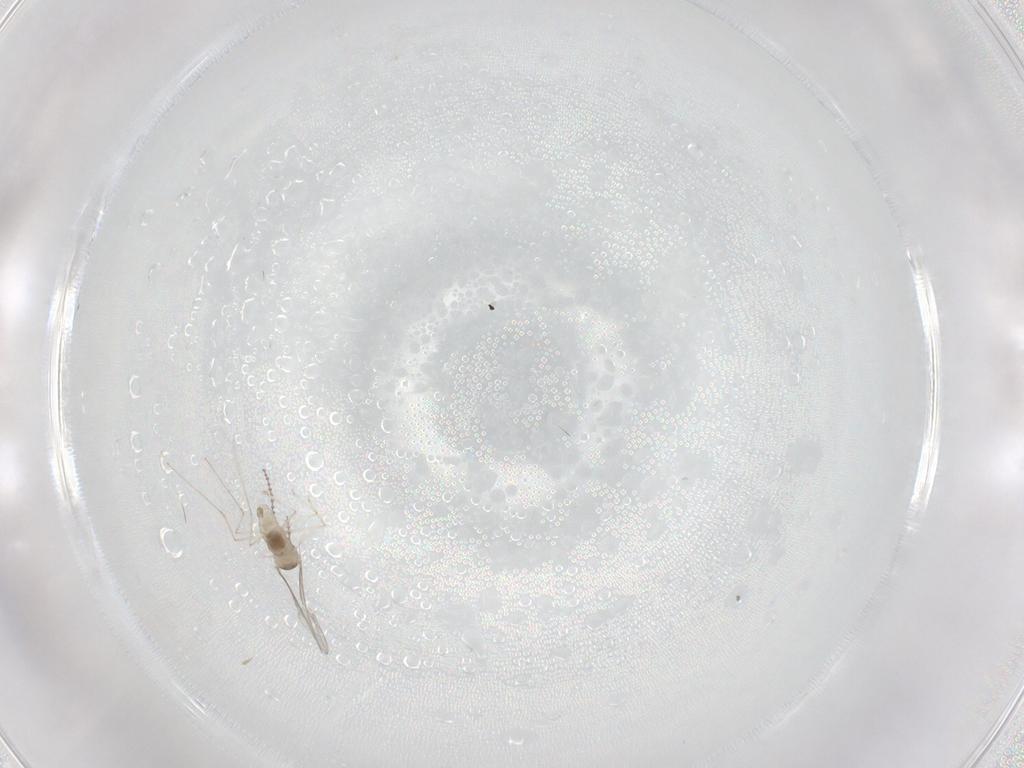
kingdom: Animalia
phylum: Arthropoda
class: Insecta
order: Diptera
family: Cecidomyiidae
